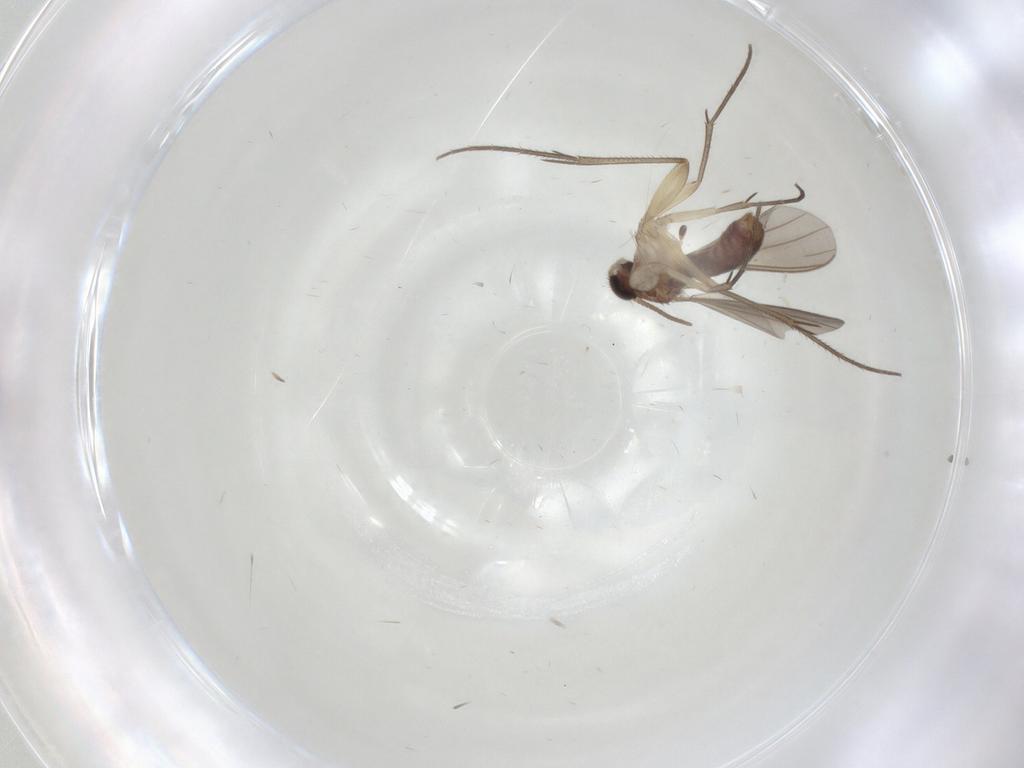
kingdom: Animalia
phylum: Arthropoda
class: Insecta
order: Diptera
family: Mycetophilidae
